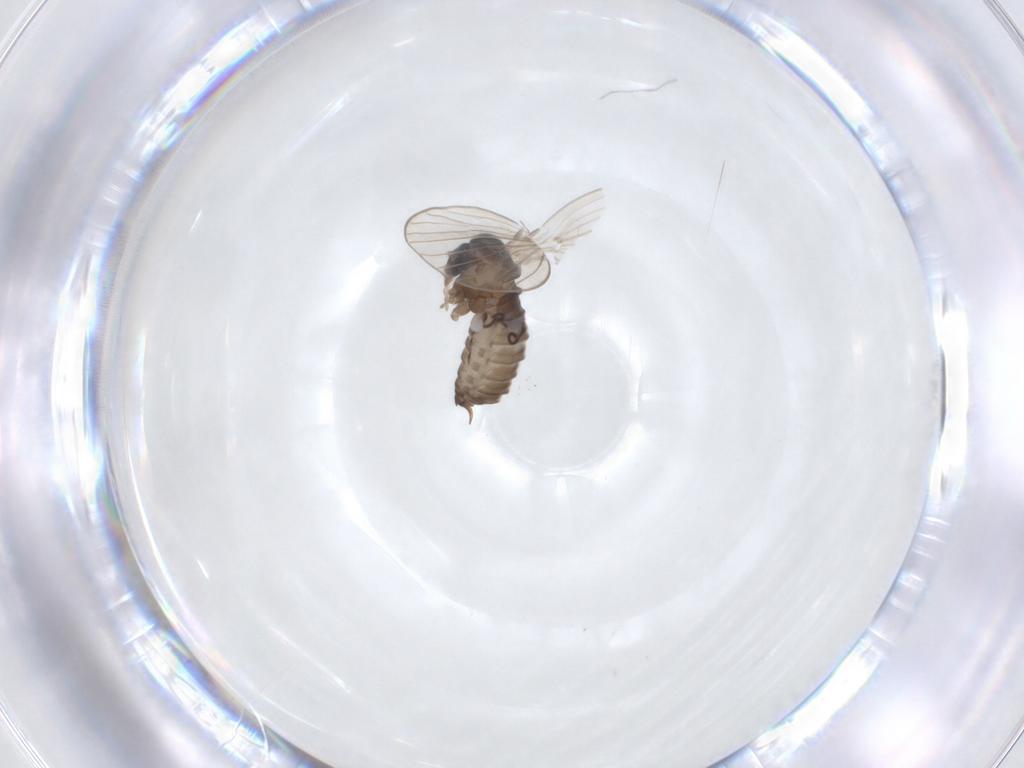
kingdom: Animalia
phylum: Arthropoda
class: Insecta
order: Diptera
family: Psychodidae
